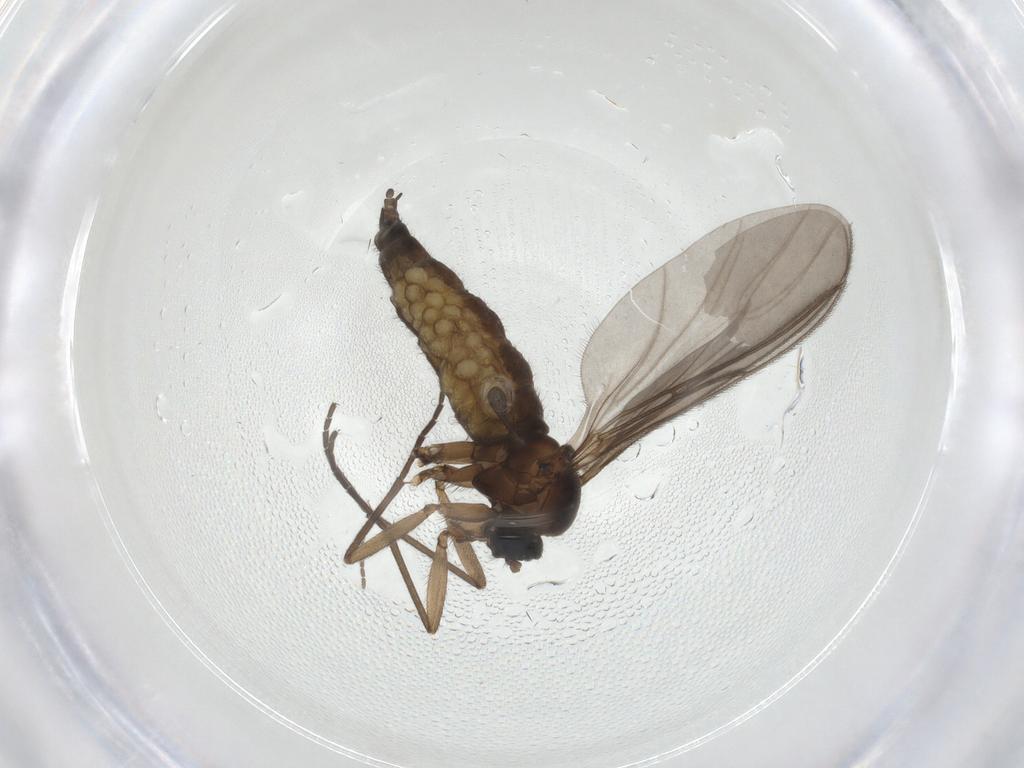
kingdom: Animalia
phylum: Arthropoda
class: Insecta
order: Diptera
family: Sciaridae
